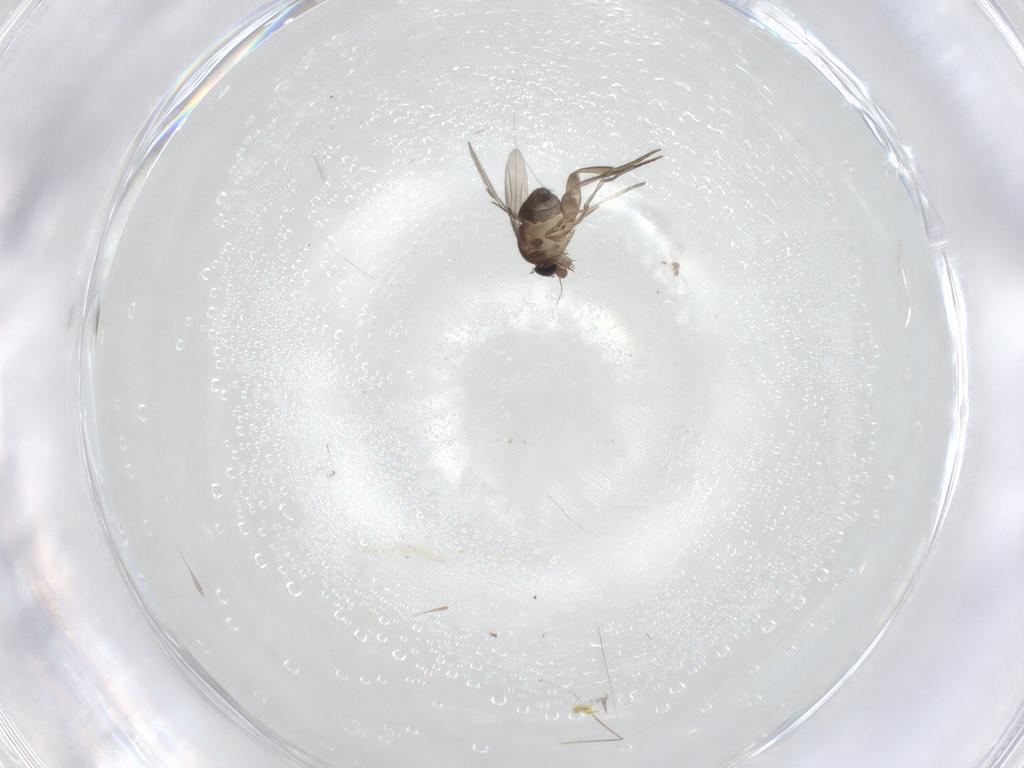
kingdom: Animalia
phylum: Arthropoda
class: Insecta
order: Diptera
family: Phoridae
